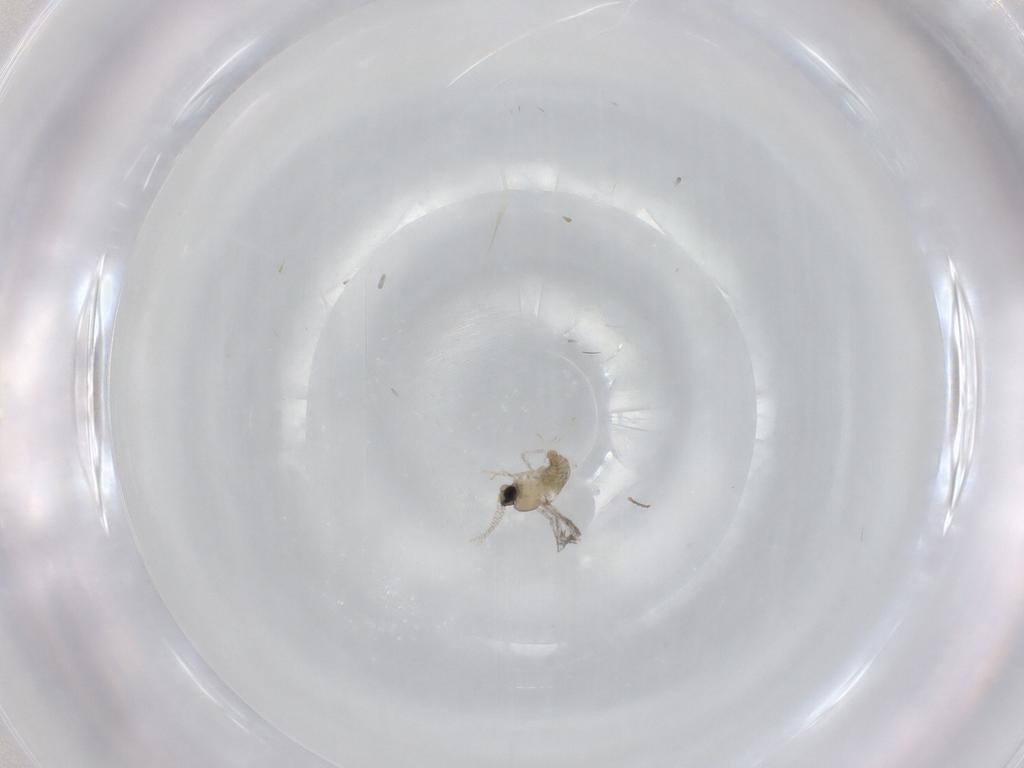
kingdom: Animalia
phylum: Arthropoda
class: Insecta
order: Diptera
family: Cecidomyiidae
